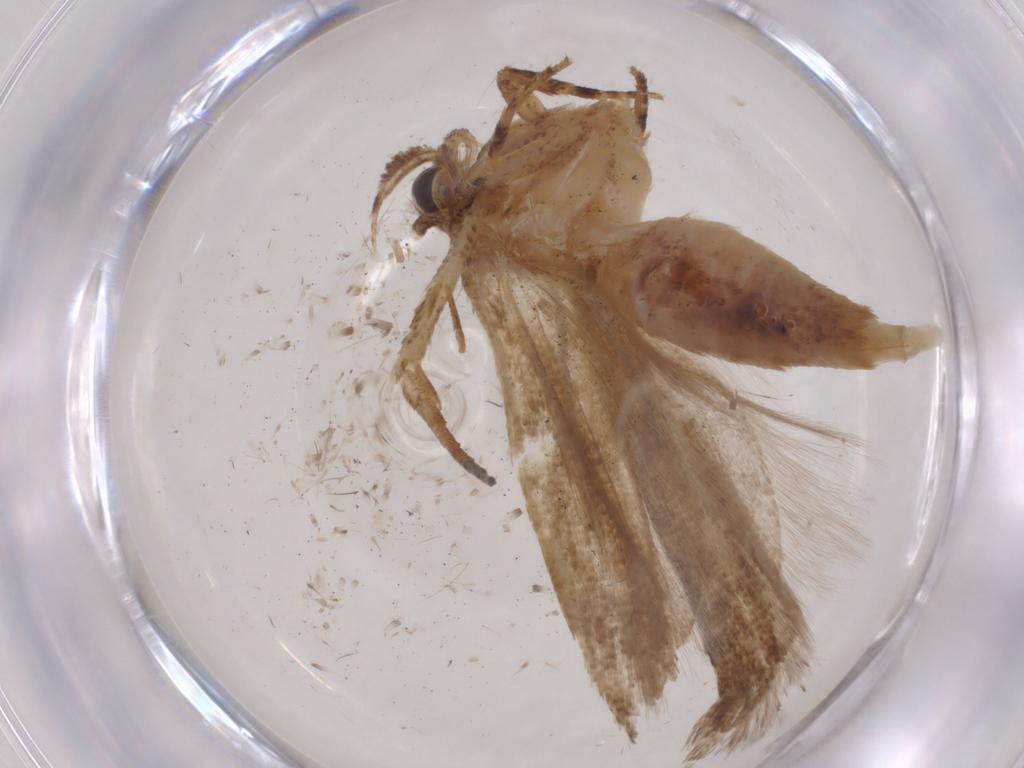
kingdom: Animalia
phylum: Arthropoda
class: Insecta
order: Lepidoptera
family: Gelechiidae
